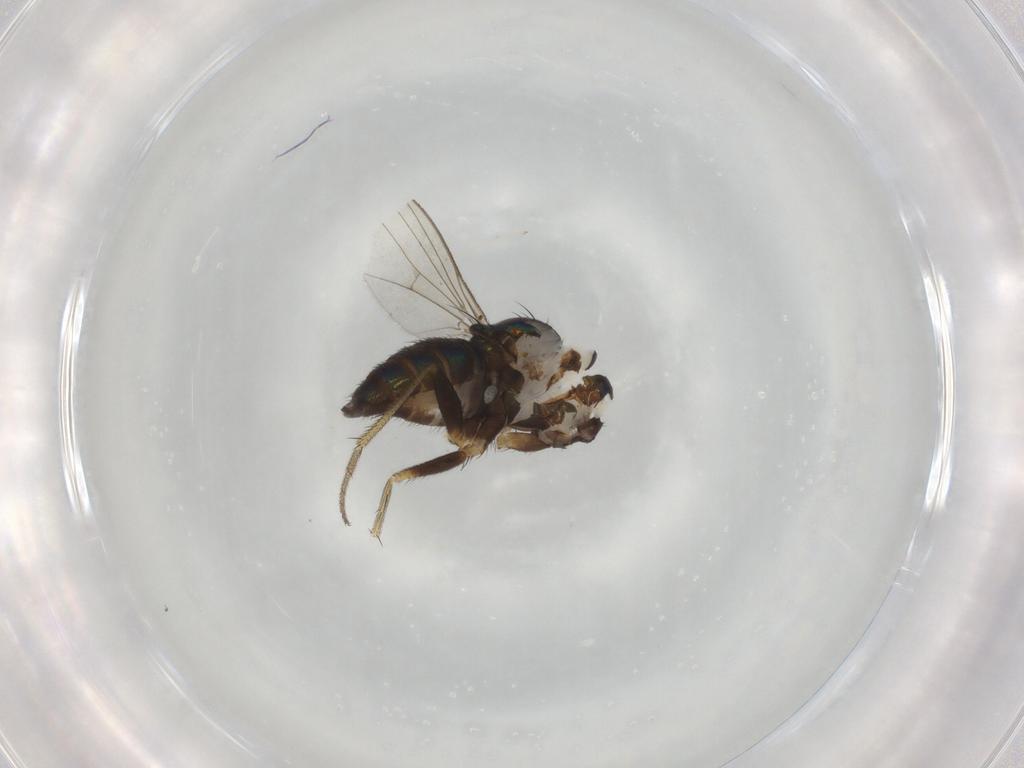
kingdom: Animalia
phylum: Arthropoda
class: Insecta
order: Diptera
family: Dolichopodidae
